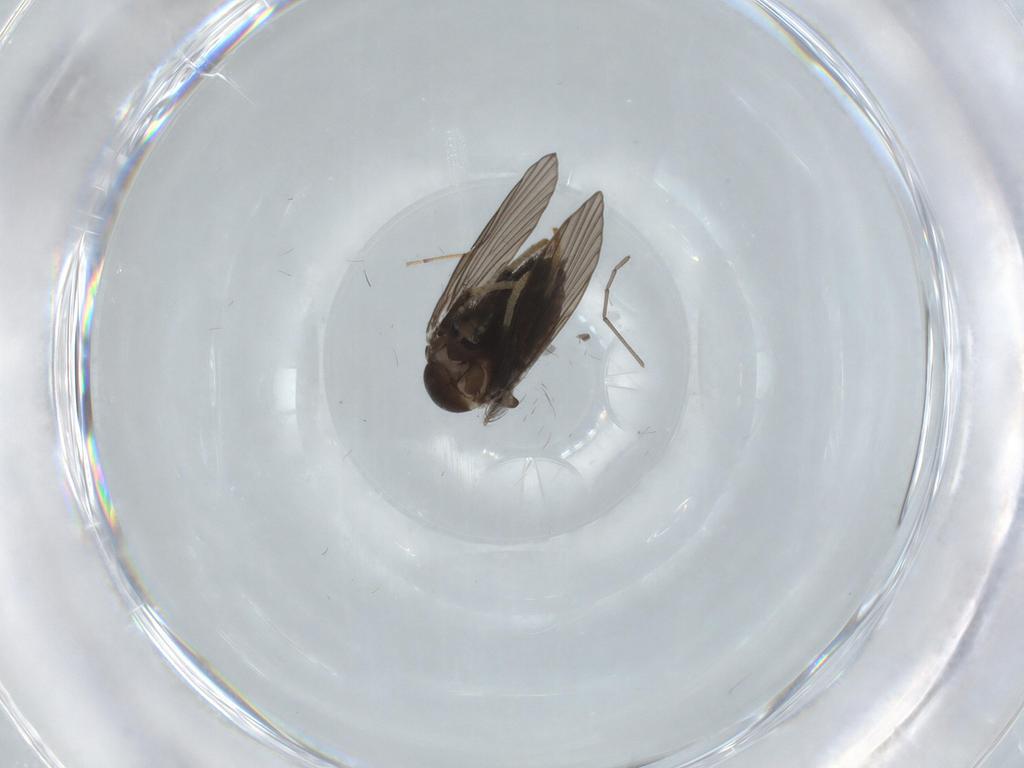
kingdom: Animalia
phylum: Arthropoda
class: Insecta
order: Diptera
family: Psychodidae
